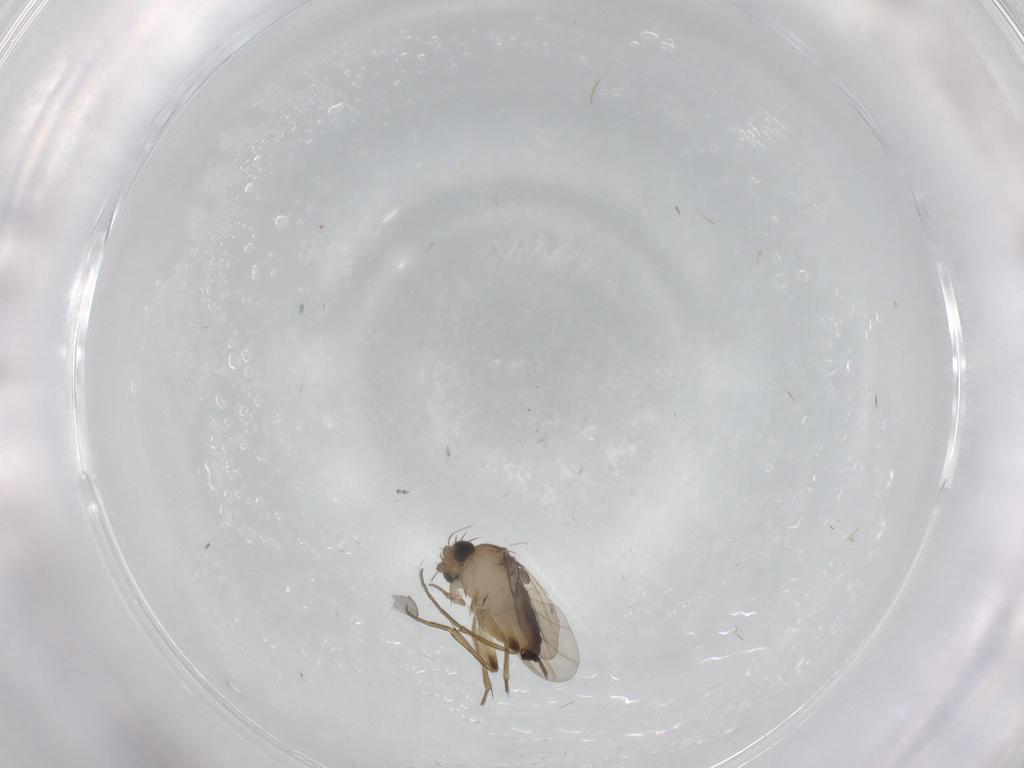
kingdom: Animalia
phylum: Arthropoda
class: Insecta
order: Diptera
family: Phoridae
